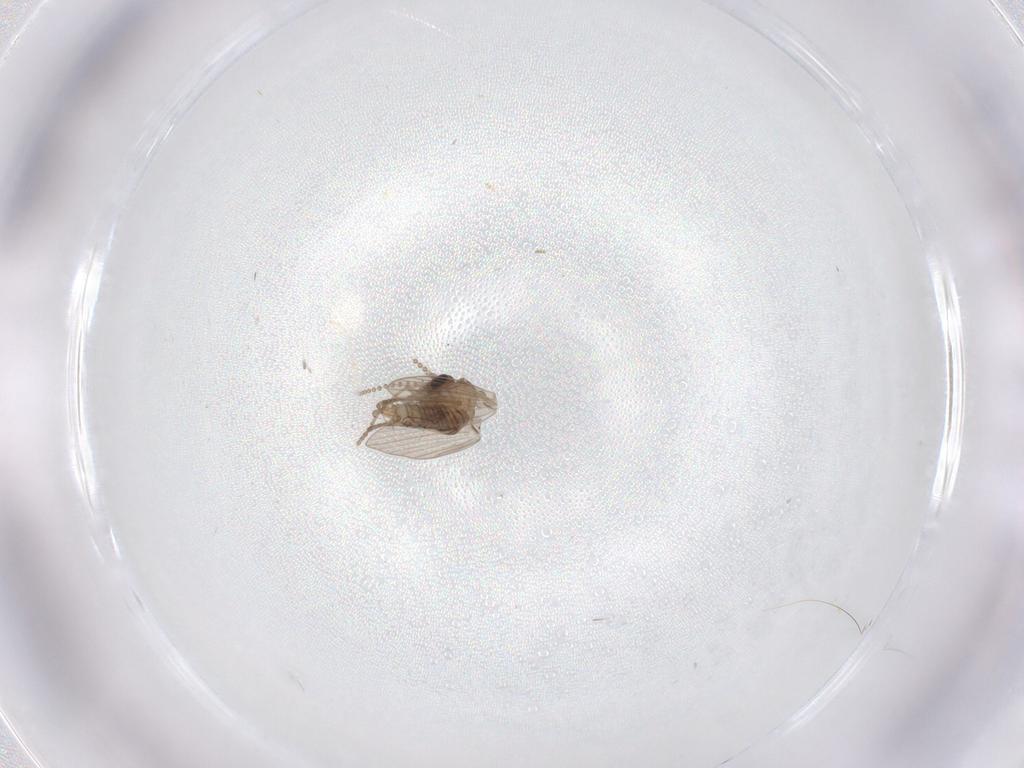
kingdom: Animalia
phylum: Arthropoda
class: Insecta
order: Diptera
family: Psychodidae
